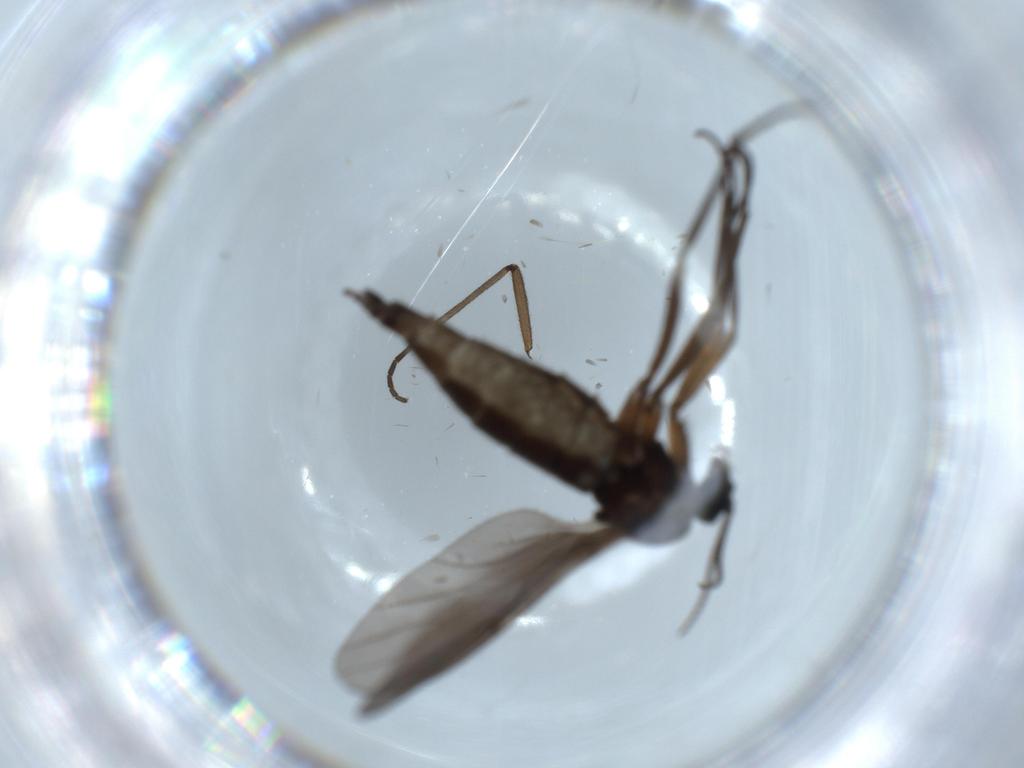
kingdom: Animalia
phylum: Arthropoda
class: Insecta
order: Diptera
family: Sciaridae
